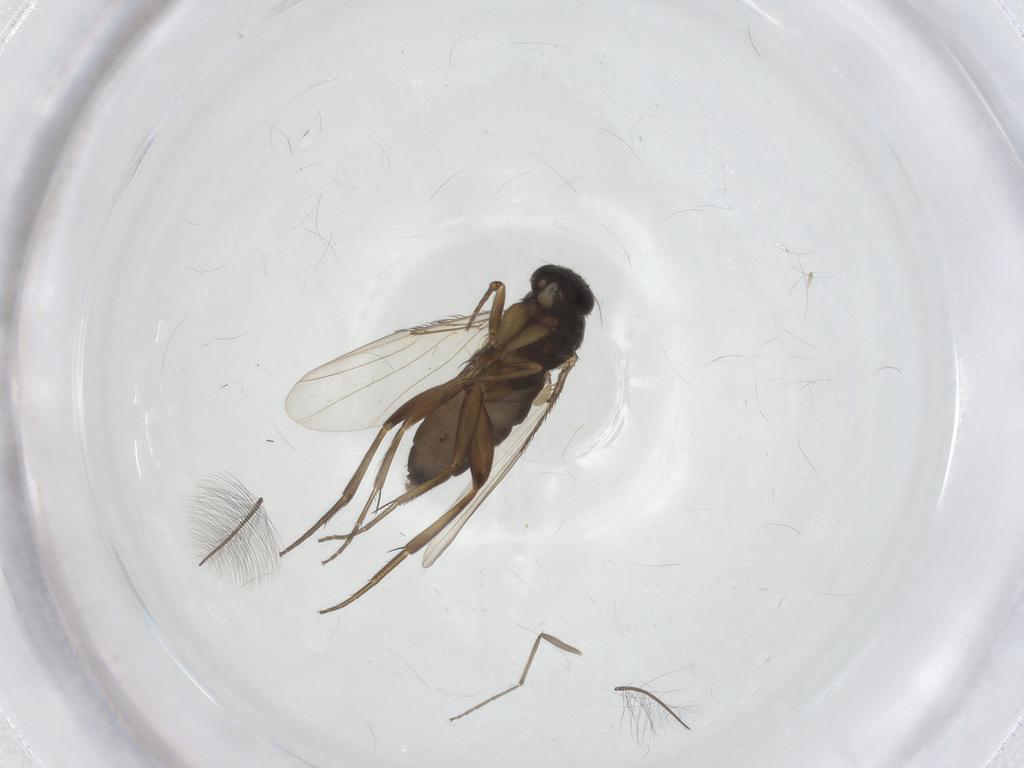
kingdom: Animalia
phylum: Arthropoda
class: Insecta
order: Diptera
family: Phoridae
